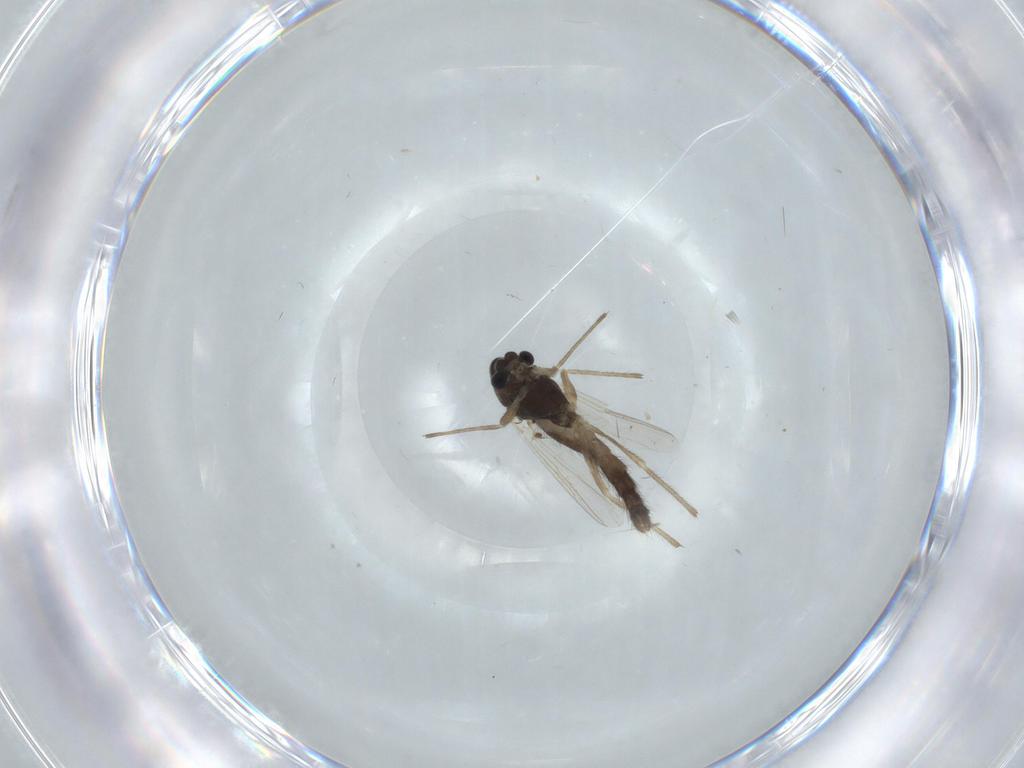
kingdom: Animalia
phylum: Arthropoda
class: Insecta
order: Diptera
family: Chironomidae
